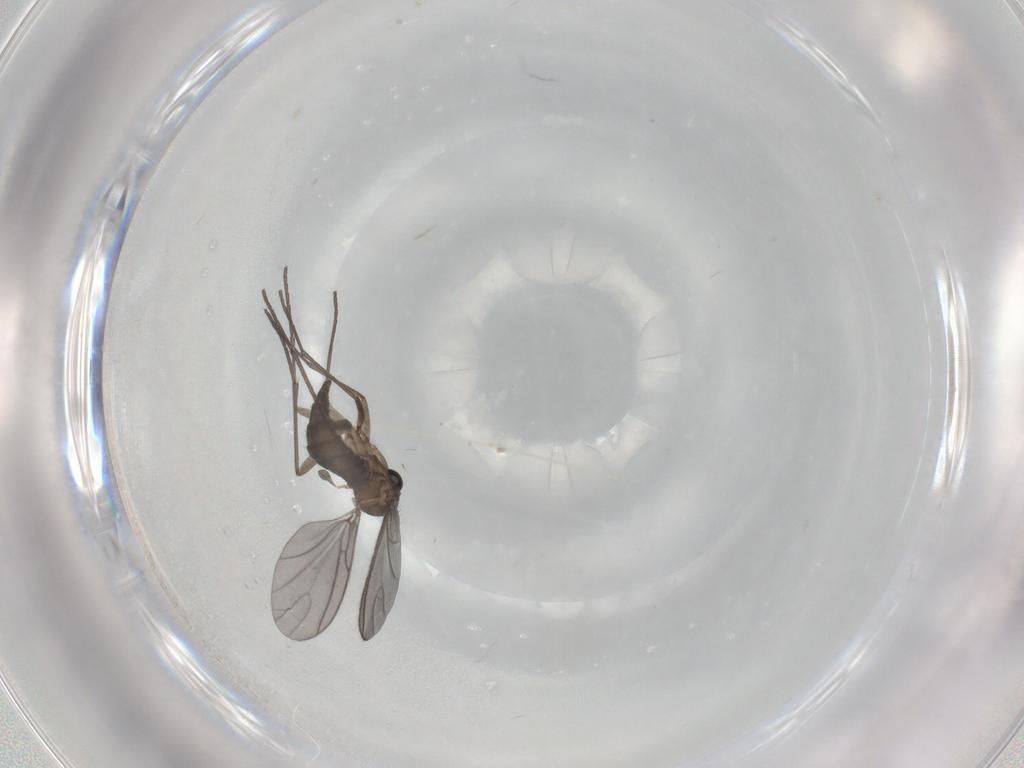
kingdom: Animalia
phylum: Arthropoda
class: Insecta
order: Diptera
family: Sciaridae
